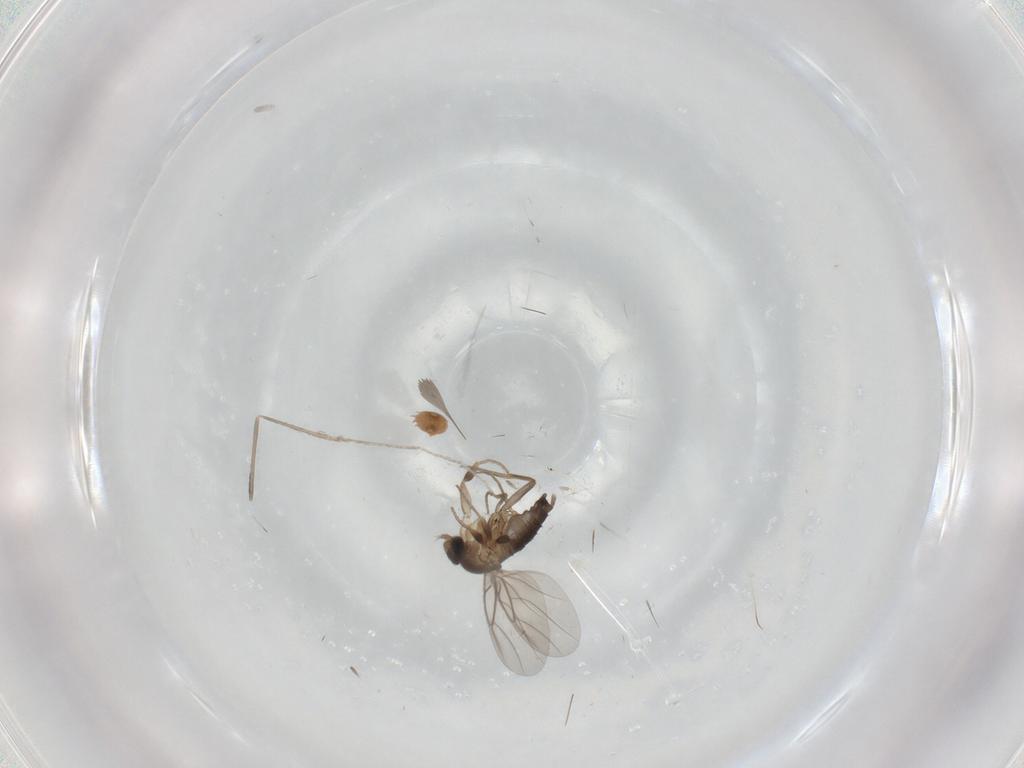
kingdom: Animalia
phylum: Arthropoda
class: Insecta
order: Diptera
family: Phoridae
